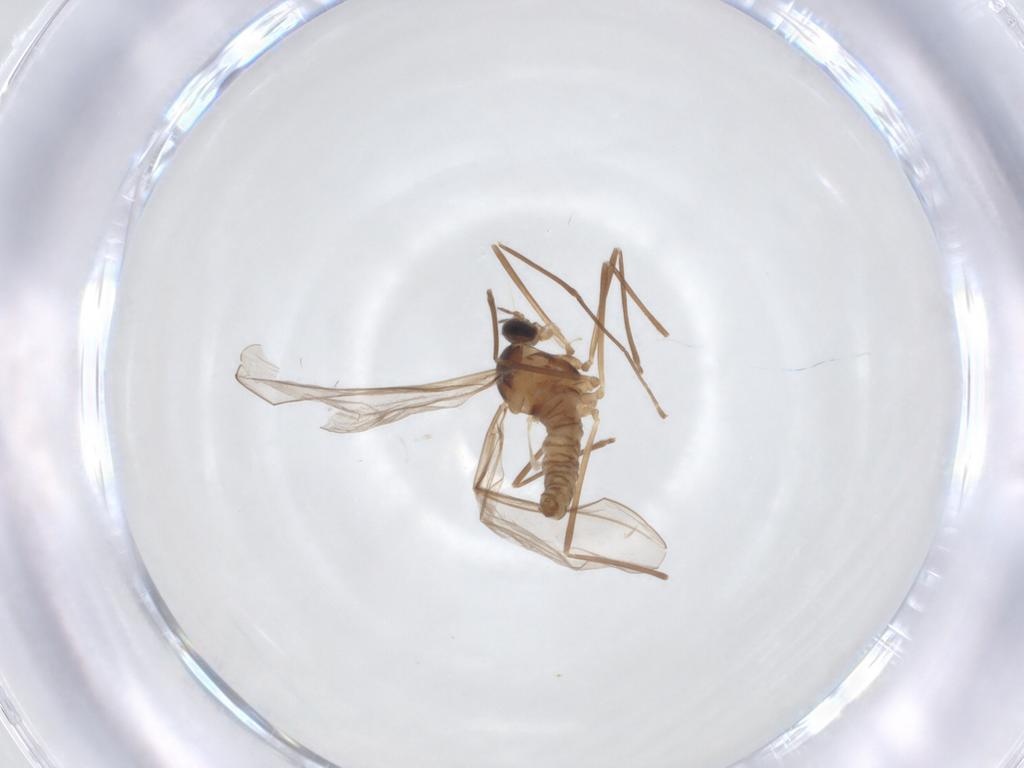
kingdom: Animalia
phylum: Arthropoda
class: Insecta
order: Diptera
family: Cecidomyiidae
